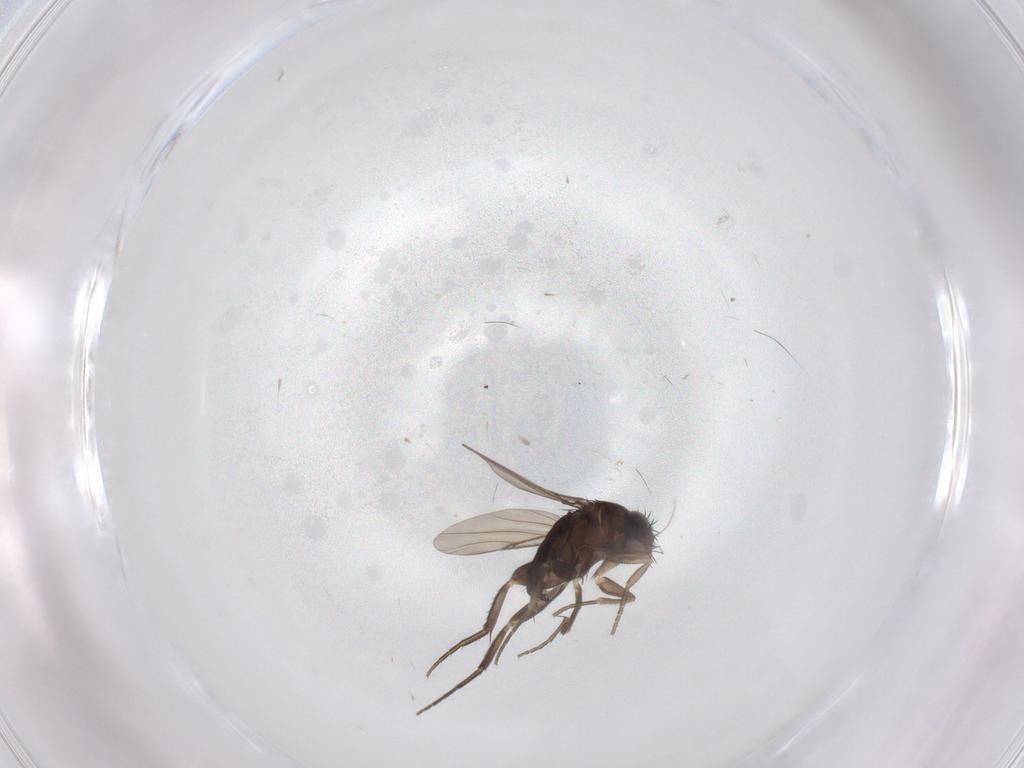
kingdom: Animalia
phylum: Arthropoda
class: Insecta
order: Diptera
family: Phoridae
